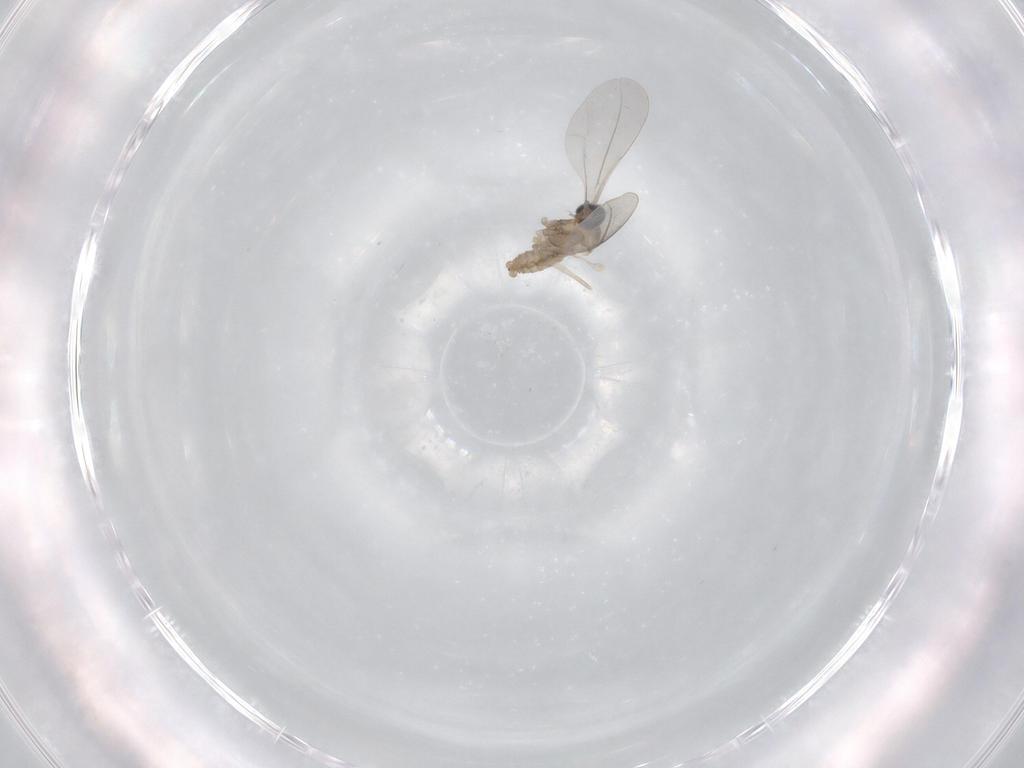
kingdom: Animalia
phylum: Arthropoda
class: Insecta
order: Diptera
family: Cecidomyiidae
